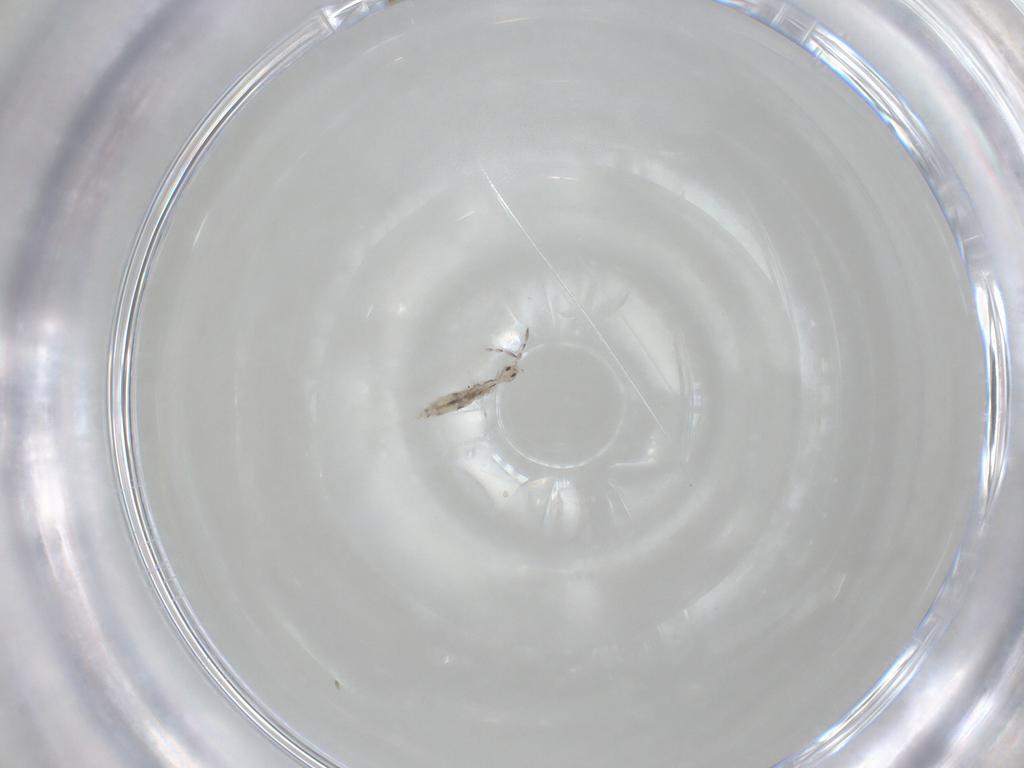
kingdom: Animalia
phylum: Arthropoda
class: Collembola
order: Entomobryomorpha
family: Entomobryidae
